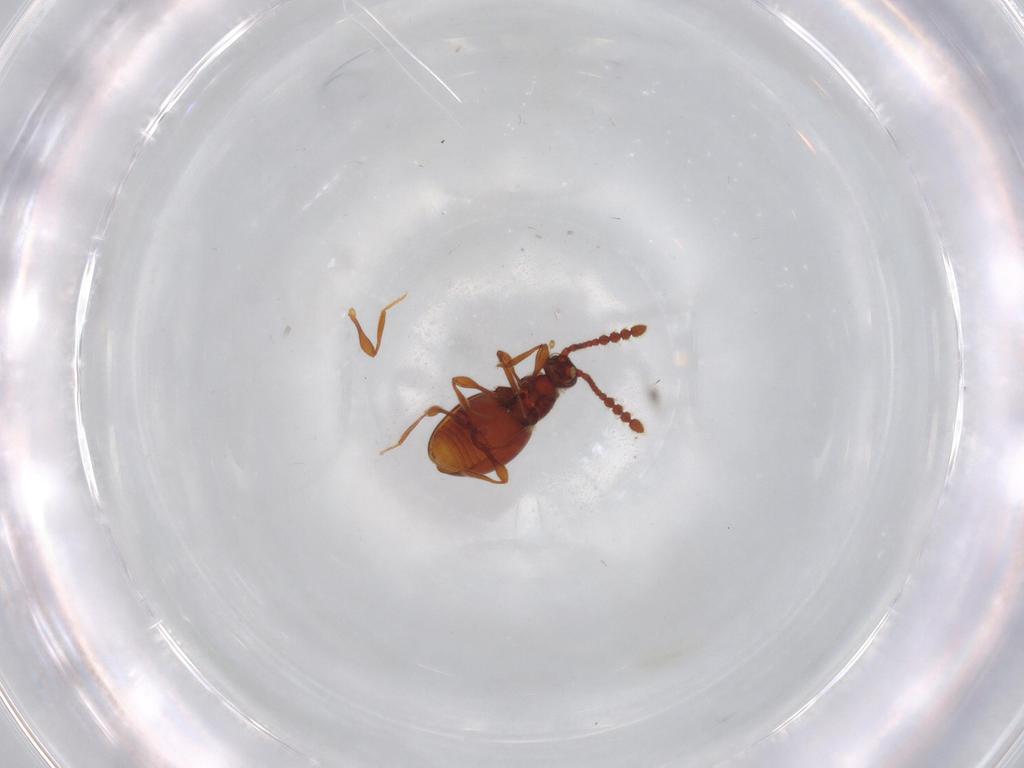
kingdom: Animalia
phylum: Arthropoda
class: Insecta
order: Coleoptera
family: Staphylinidae
